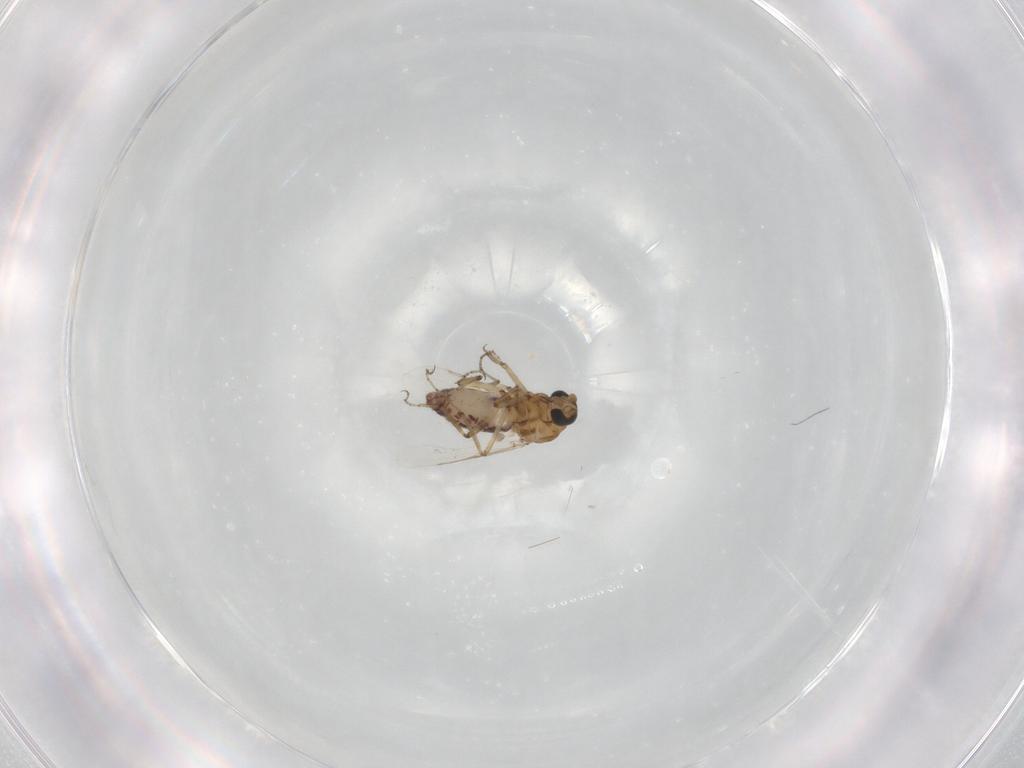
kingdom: Animalia
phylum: Arthropoda
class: Insecta
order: Diptera
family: Ceratopogonidae
